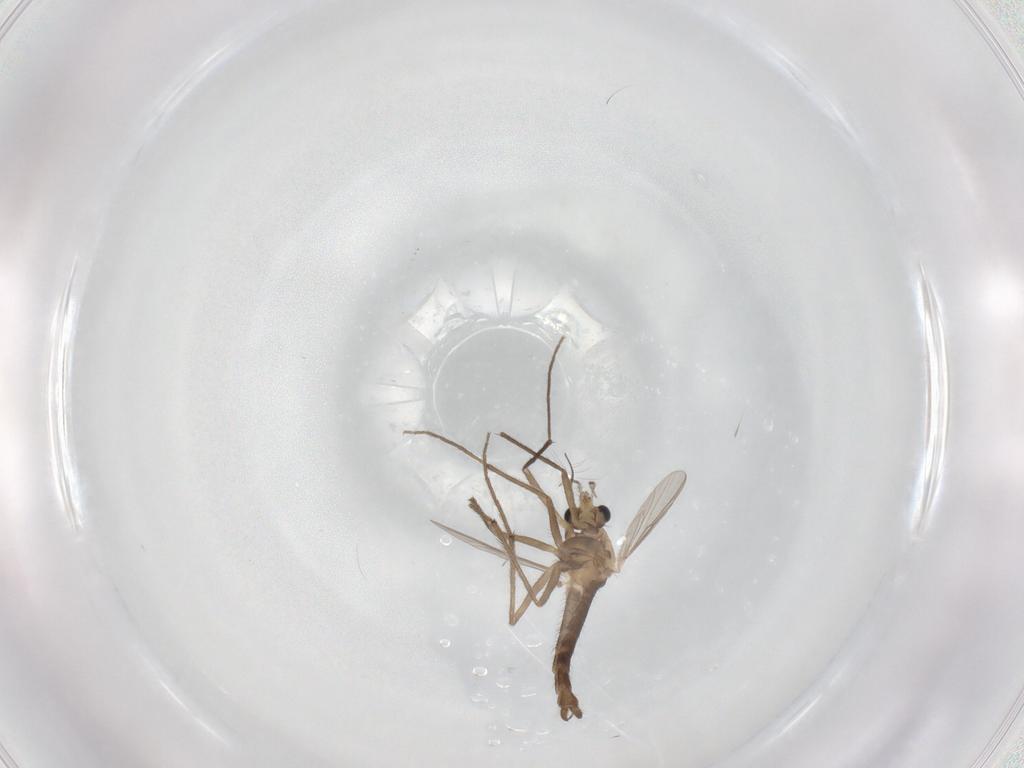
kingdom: Animalia
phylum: Arthropoda
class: Insecta
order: Diptera
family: Chironomidae
